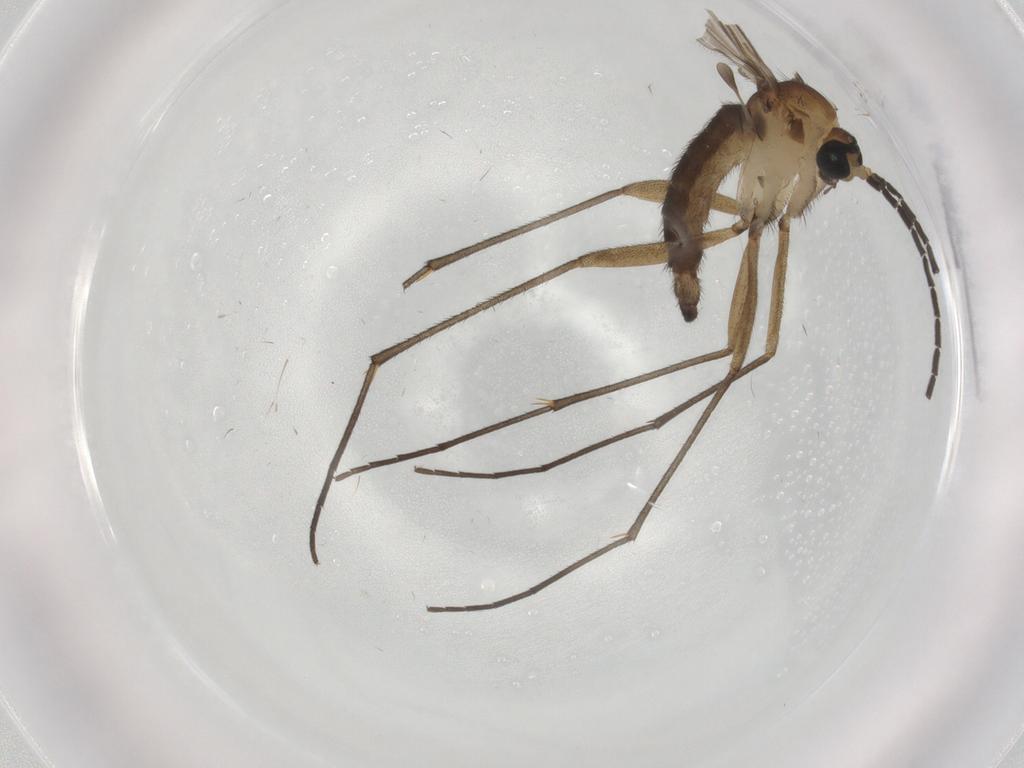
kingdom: Animalia
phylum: Arthropoda
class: Insecta
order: Diptera
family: Sciaridae
